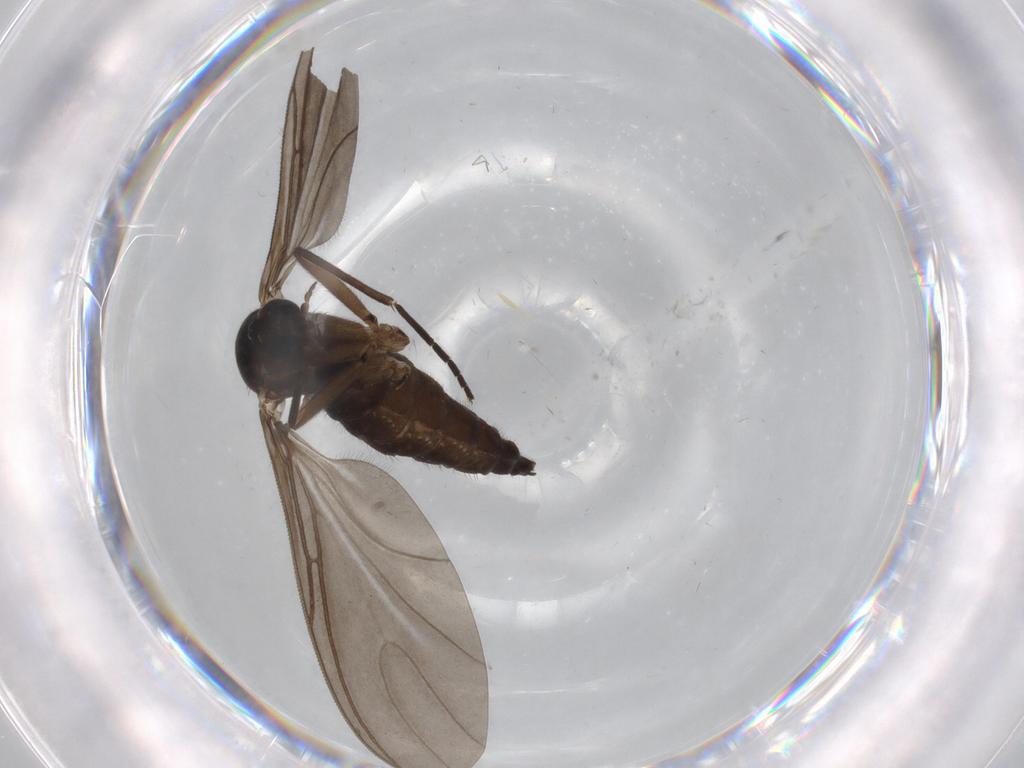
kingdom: Animalia
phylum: Arthropoda
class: Insecta
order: Diptera
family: Sciaridae
